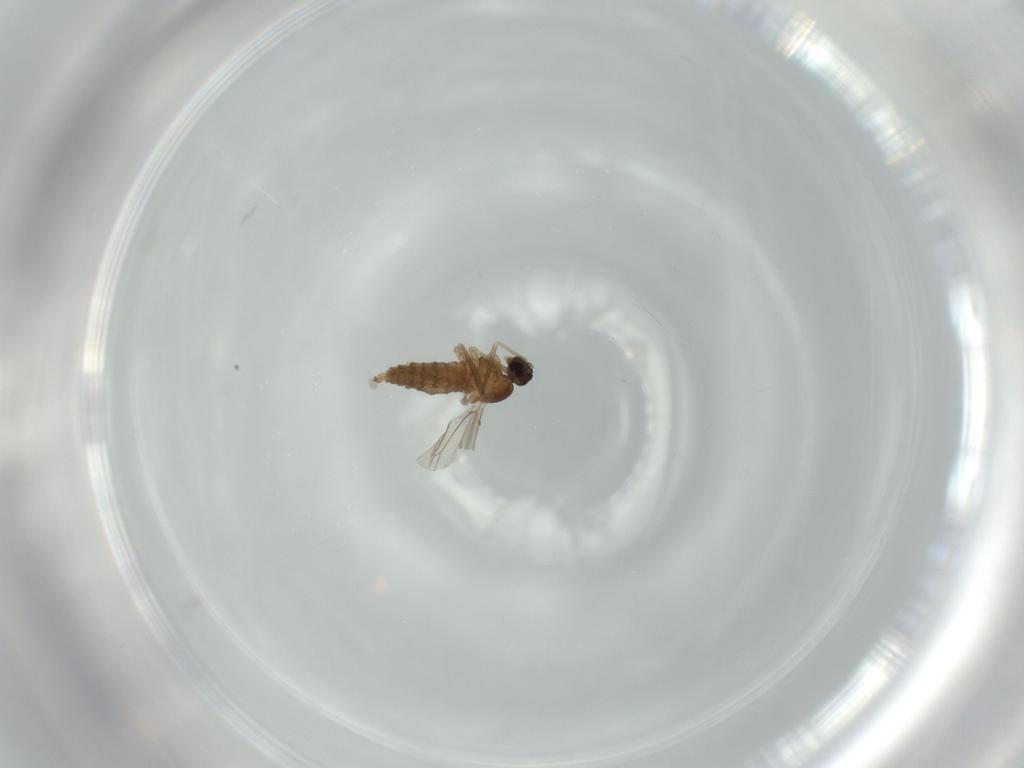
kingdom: Animalia
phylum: Arthropoda
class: Insecta
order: Diptera
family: Cecidomyiidae
